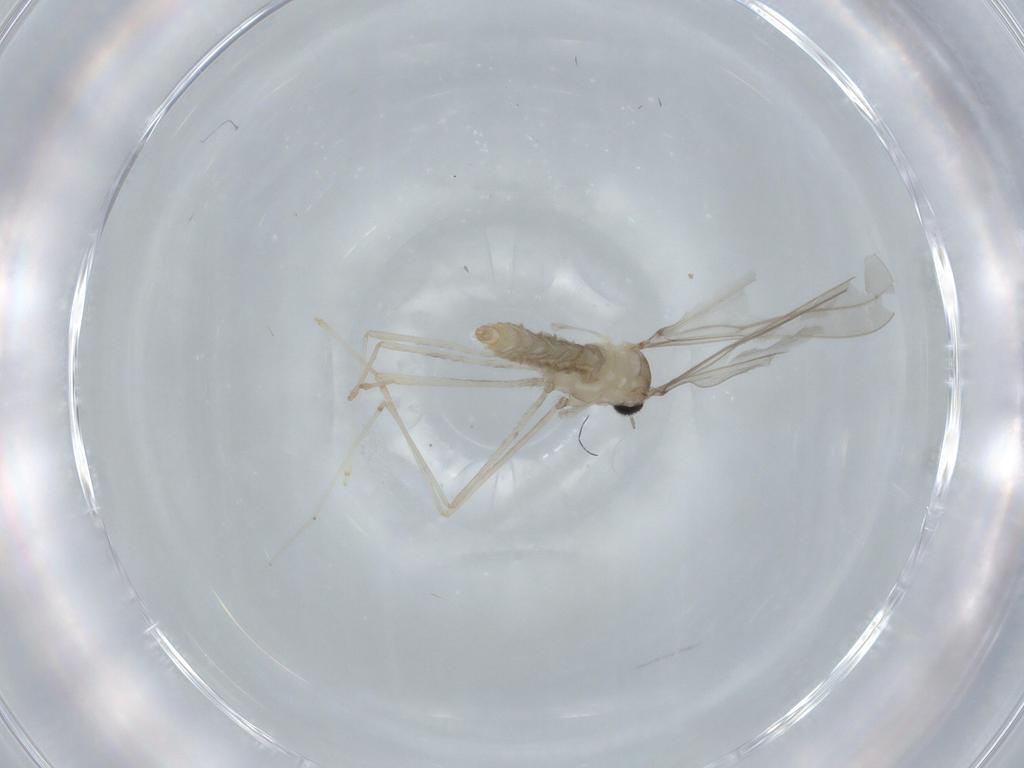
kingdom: Animalia
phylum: Arthropoda
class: Insecta
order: Diptera
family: Cecidomyiidae
